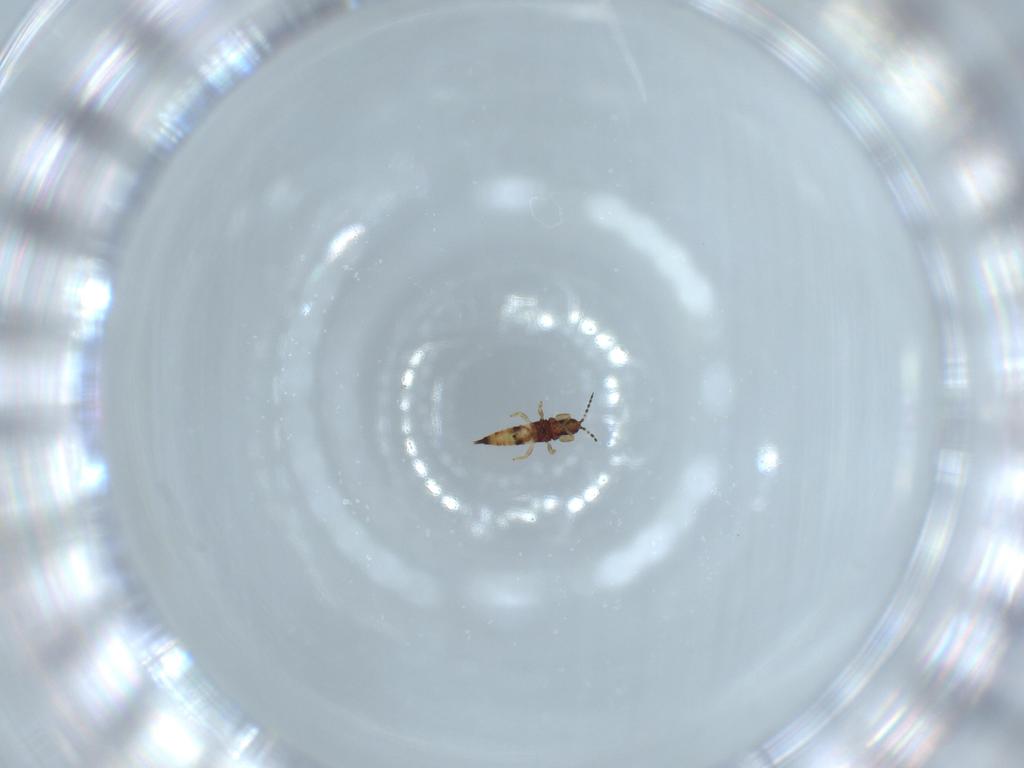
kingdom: Animalia
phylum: Arthropoda
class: Insecta
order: Thysanoptera
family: Phlaeothripidae
